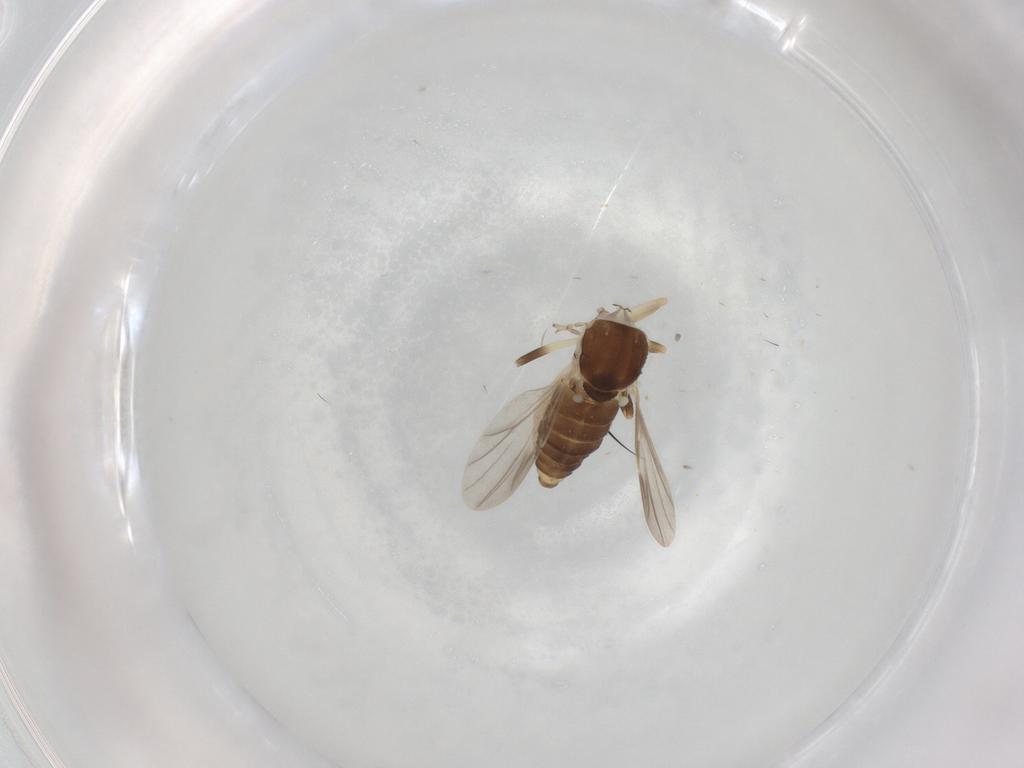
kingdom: Animalia
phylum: Arthropoda
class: Insecta
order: Diptera
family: Ceratopogonidae
